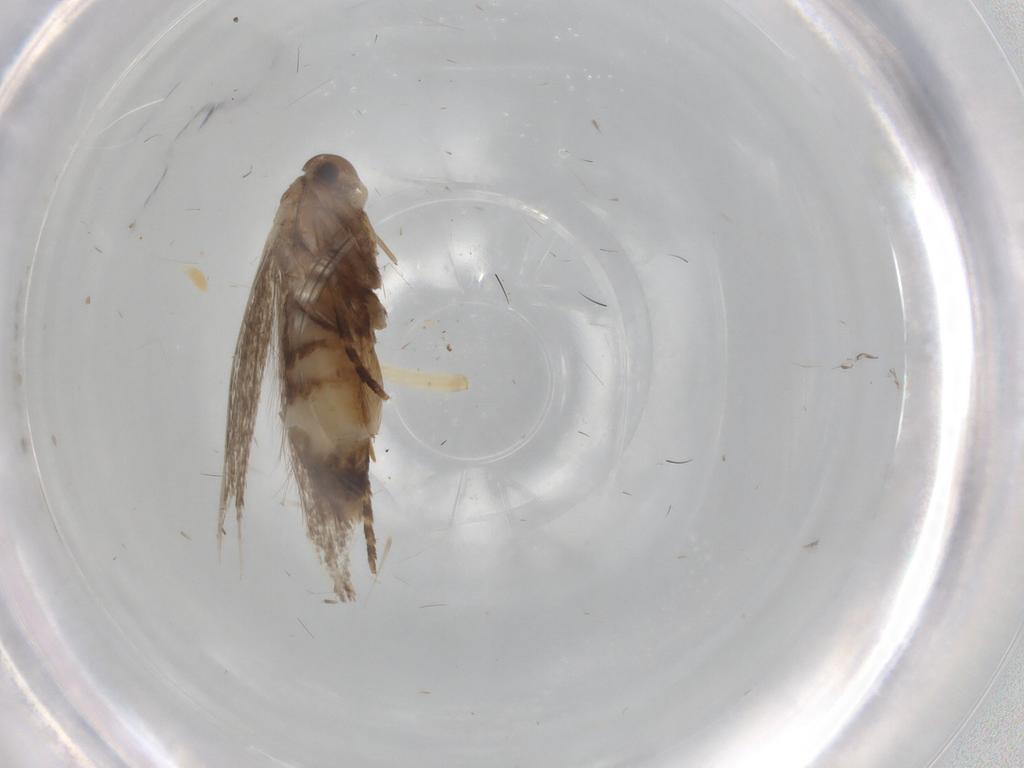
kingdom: Animalia
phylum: Arthropoda
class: Insecta
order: Lepidoptera
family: Elachistidae
